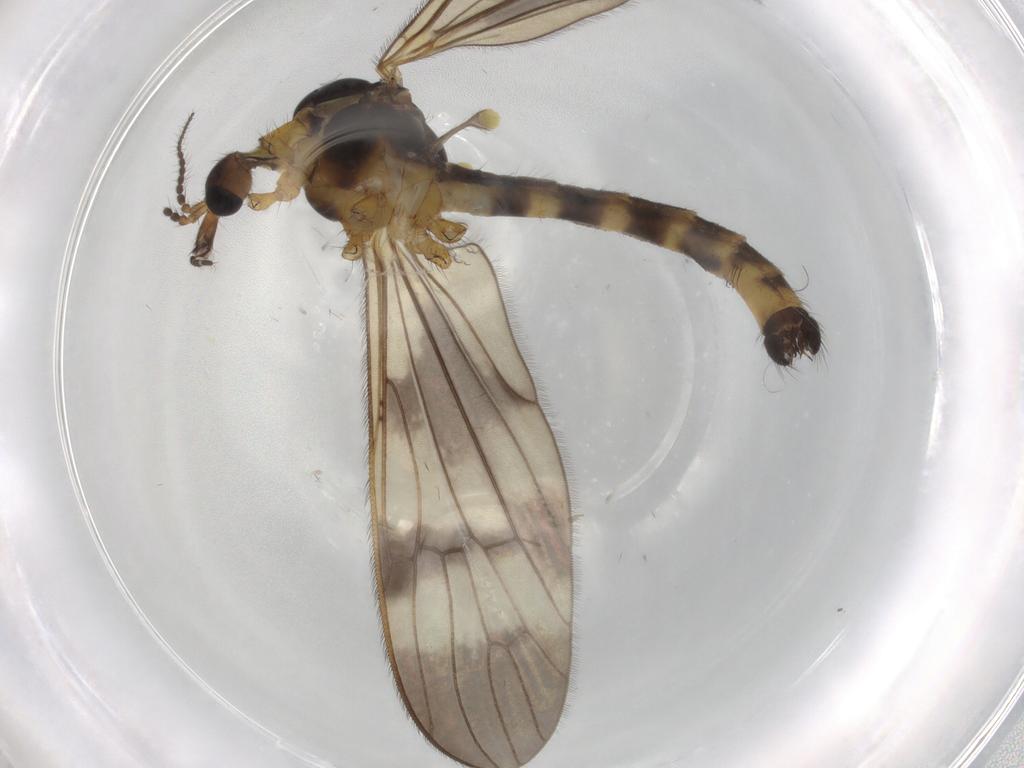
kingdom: Animalia
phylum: Arthropoda
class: Insecta
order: Diptera
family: Limoniidae
